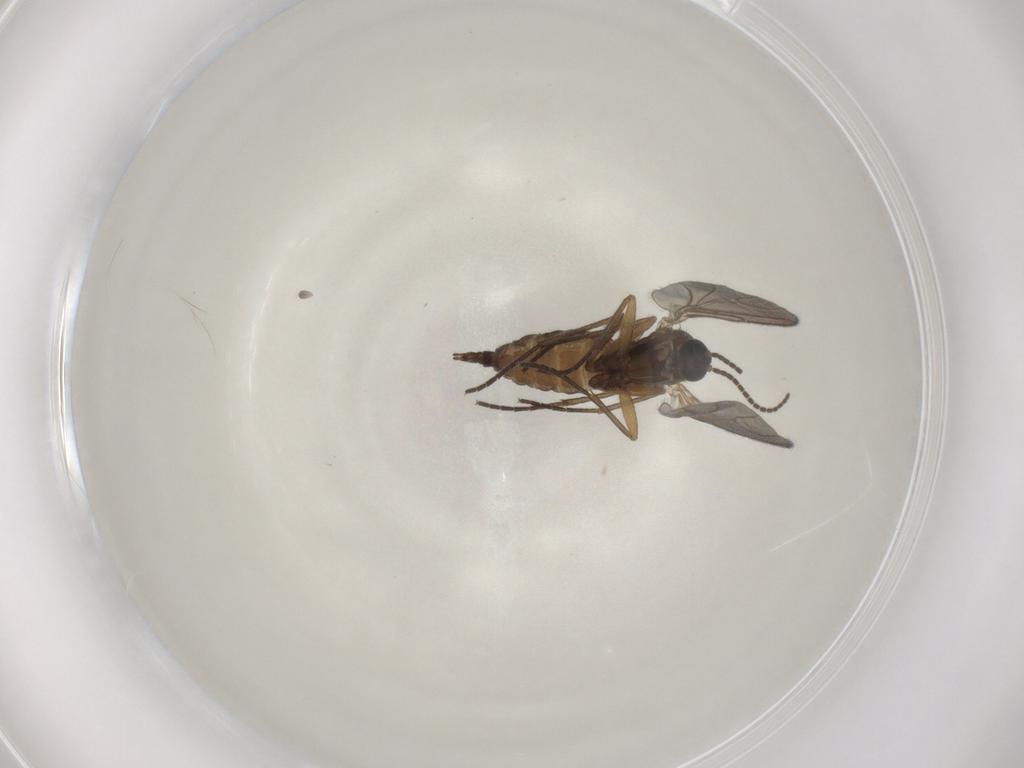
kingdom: Animalia
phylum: Arthropoda
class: Insecta
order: Diptera
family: Sciaridae
